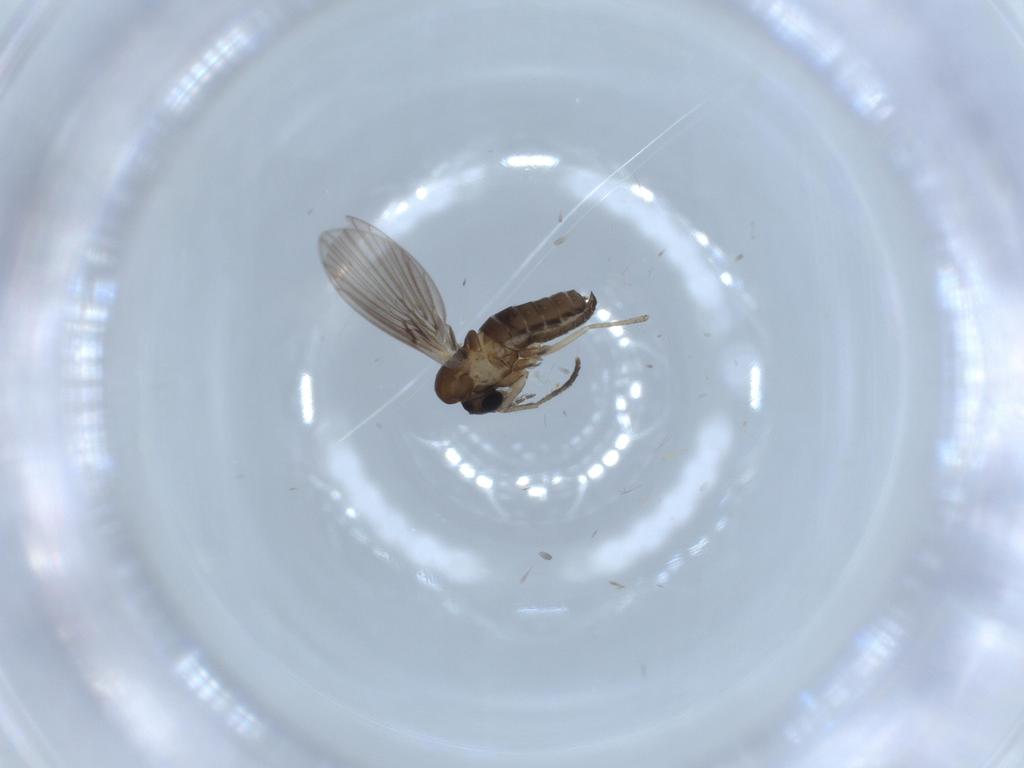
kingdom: Animalia
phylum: Arthropoda
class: Insecta
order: Diptera
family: Psychodidae
